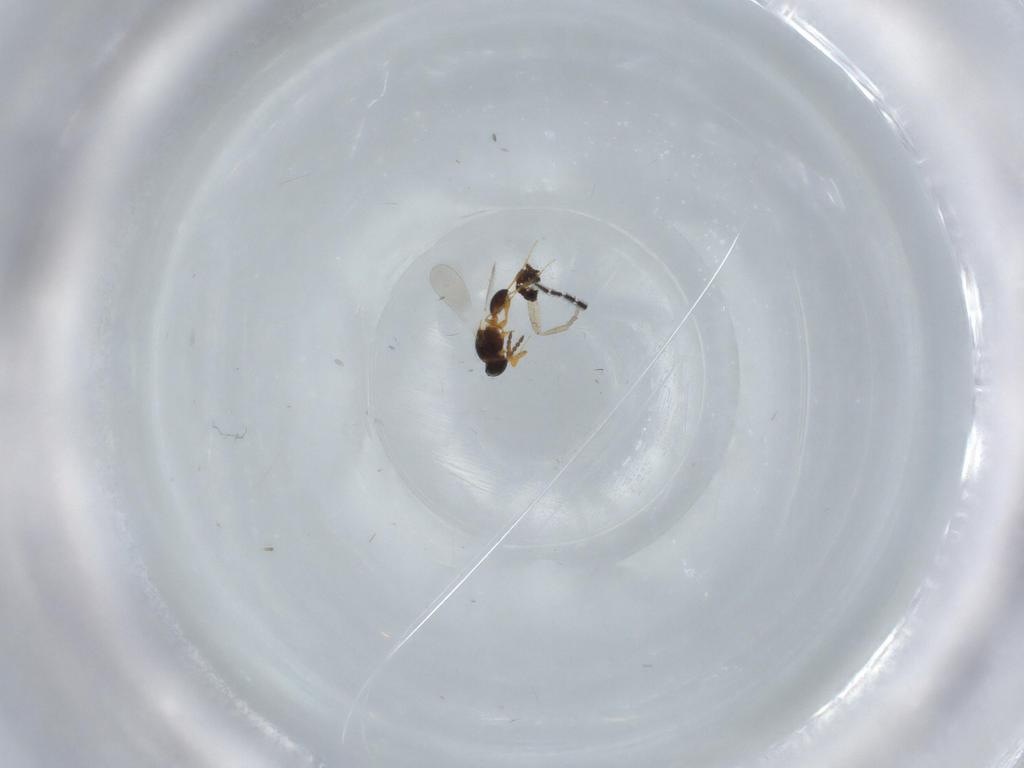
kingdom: Animalia
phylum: Arthropoda
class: Insecta
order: Hymenoptera
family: Platygastridae
